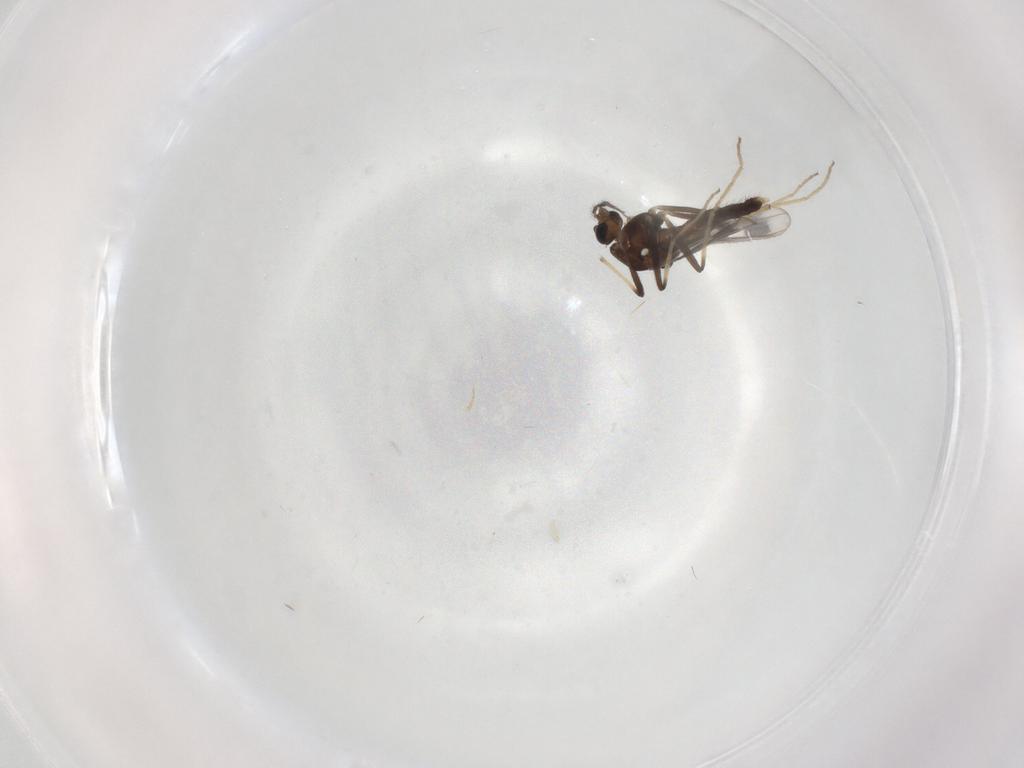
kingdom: Animalia
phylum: Arthropoda
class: Insecta
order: Diptera
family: Chironomidae
